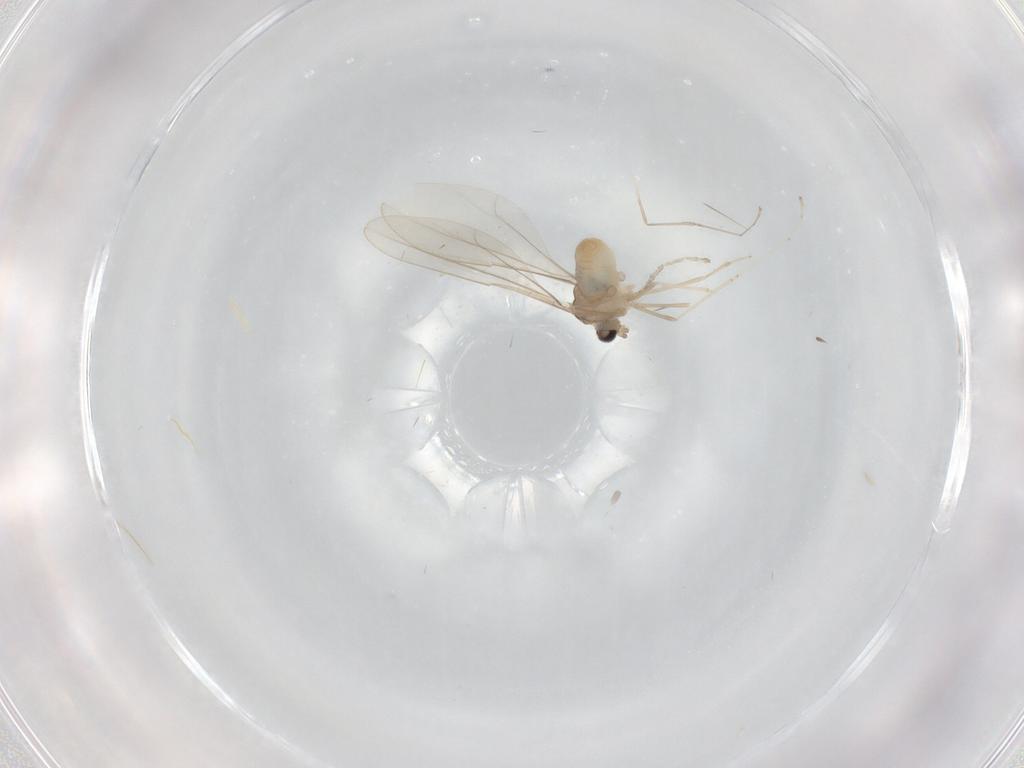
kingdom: Animalia
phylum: Arthropoda
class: Insecta
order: Diptera
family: Cecidomyiidae
